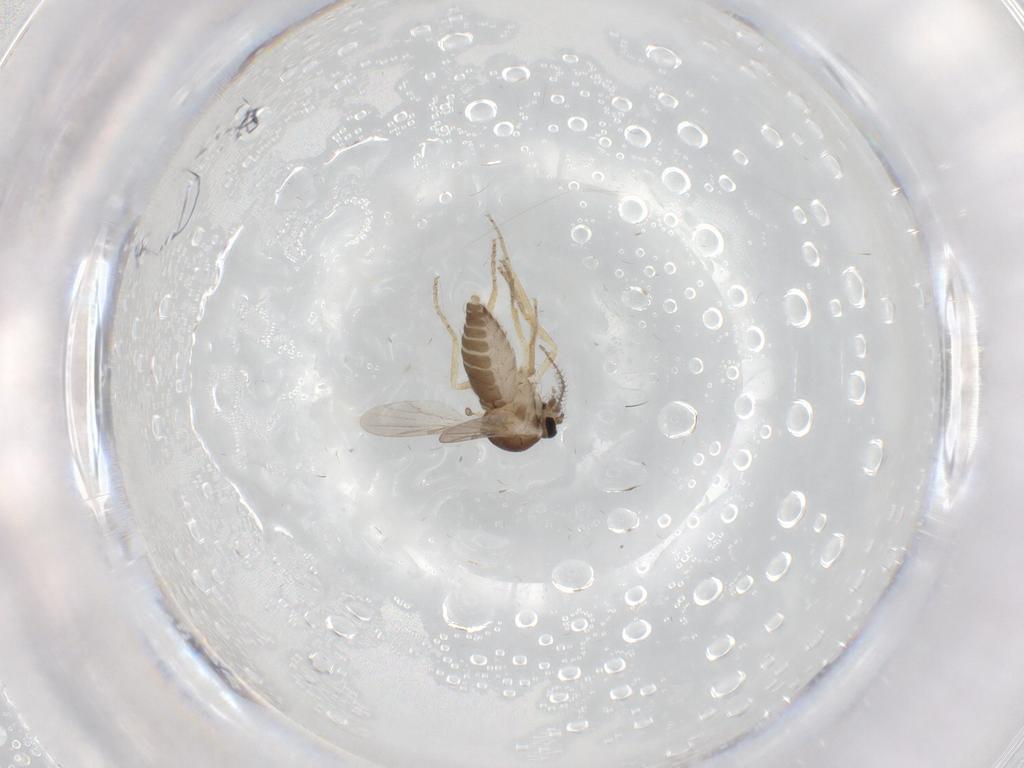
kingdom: Animalia
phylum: Arthropoda
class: Insecta
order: Diptera
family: Ceratopogonidae
